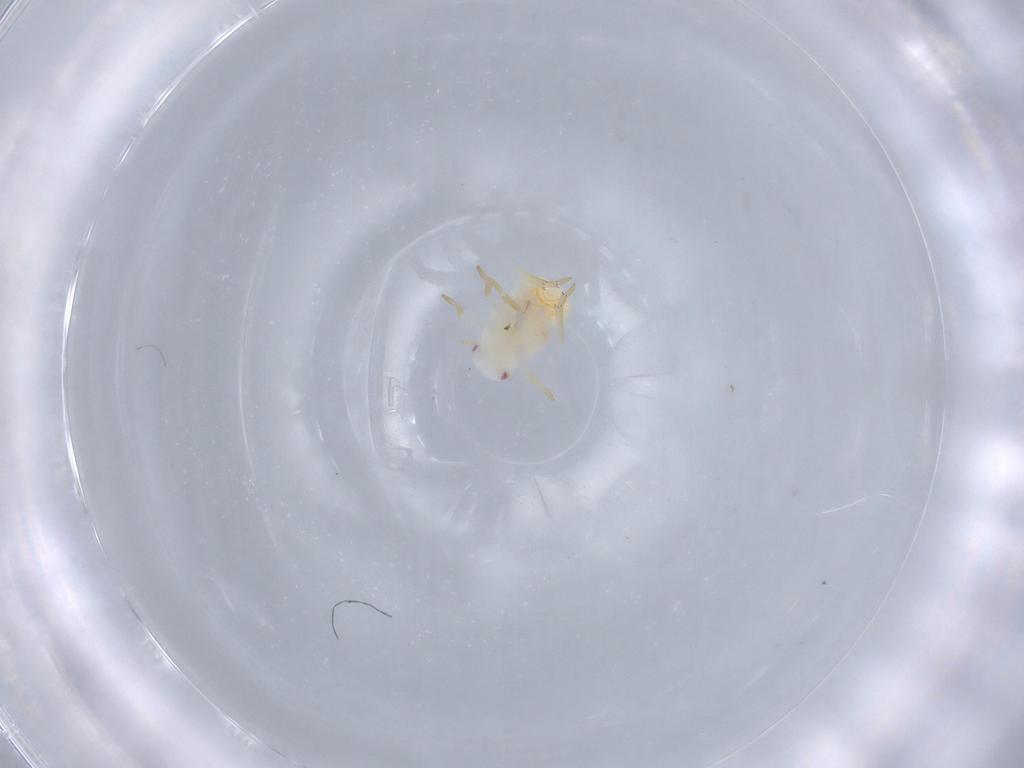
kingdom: Animalia
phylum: Arthropoda
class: Insecta
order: Hemiptera
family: Flatidae
